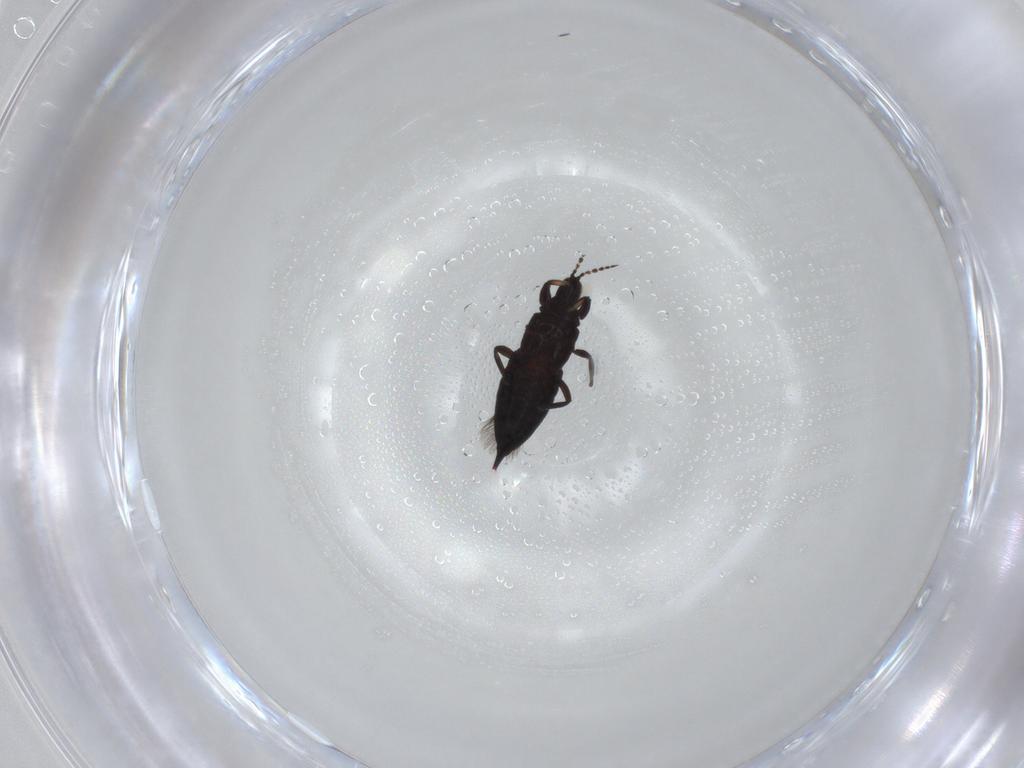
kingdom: Animalia
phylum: Arthropoda
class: Insecta
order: Thysanoptera
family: Phlaeothripidae
